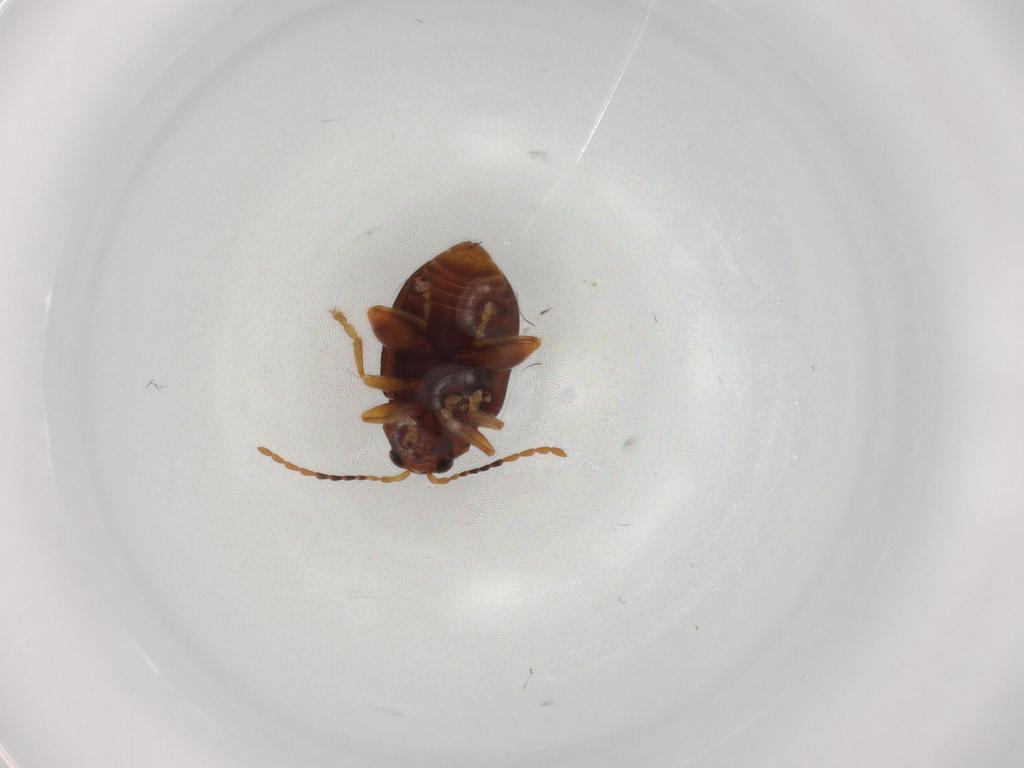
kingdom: Animalia
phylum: Arthropoda
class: Insecta
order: Coleoptera
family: Chrysomelidae
